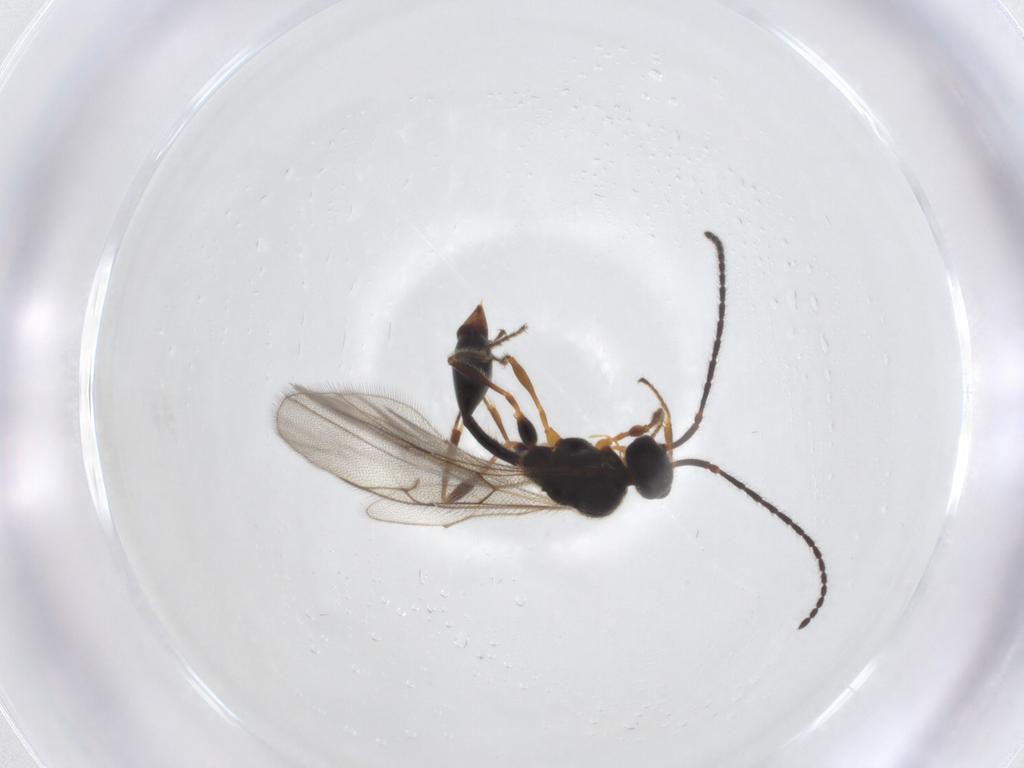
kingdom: Animalia
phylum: Arthropoda
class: Insecta
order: Hymenoptera
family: Diapriidae
